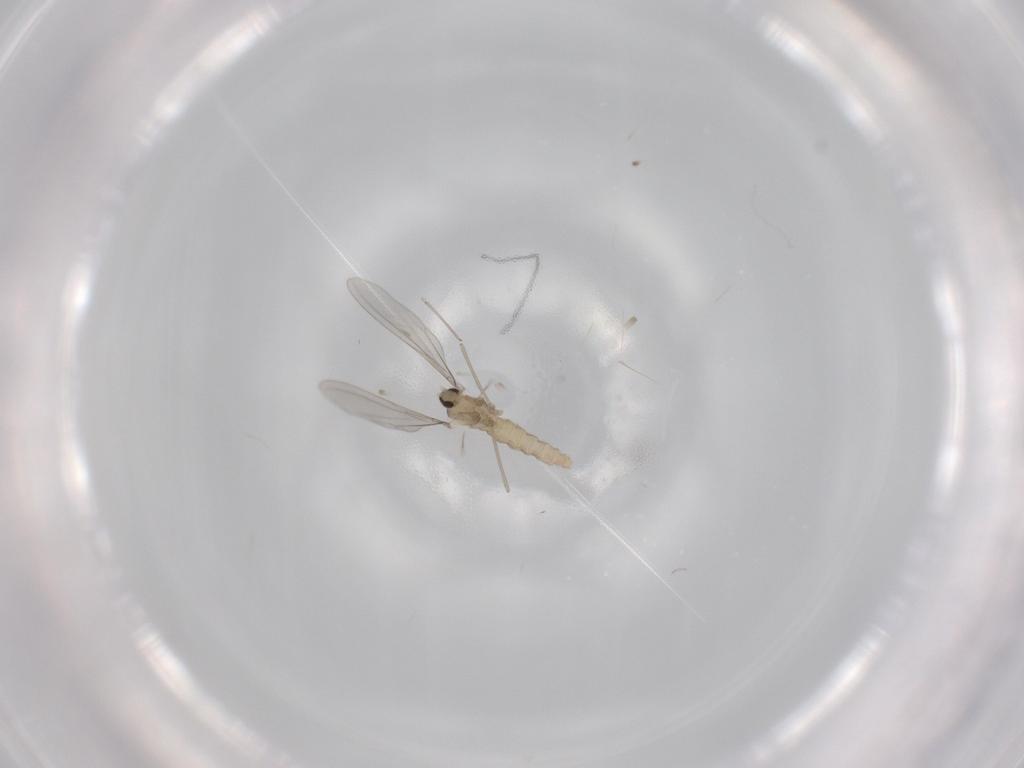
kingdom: Animalia
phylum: Arthropoda
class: Insecta
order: Diptera
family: Cecidomyiidae
